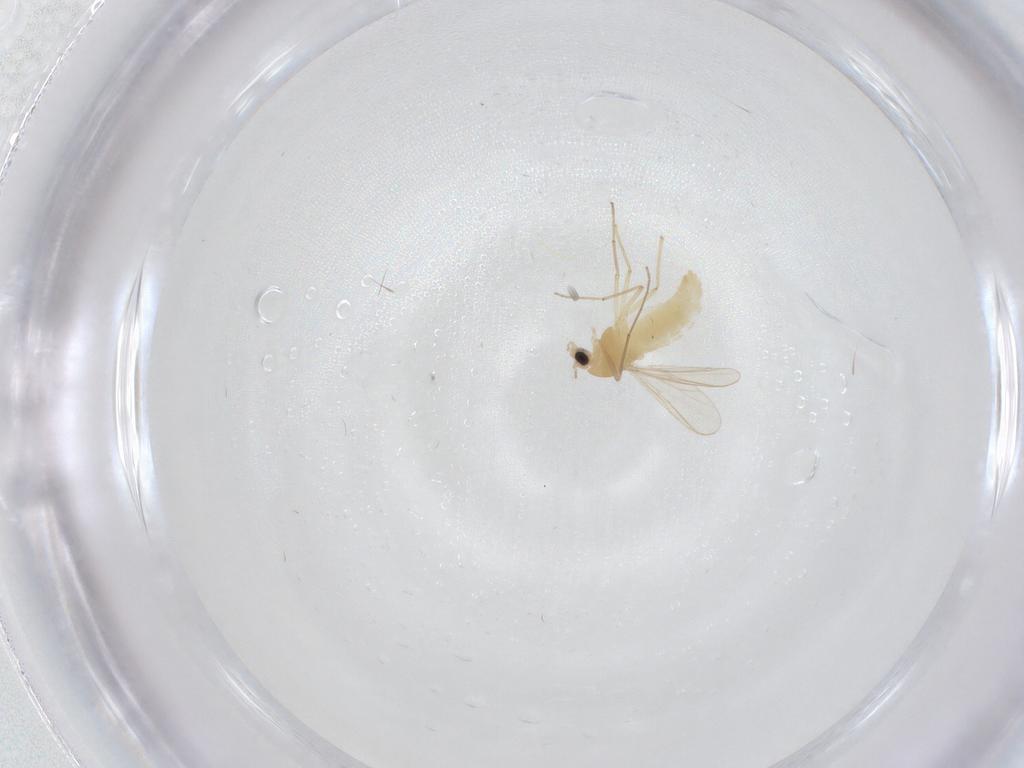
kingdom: Animalia
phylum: Arthropoda
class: Insecta
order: Diptera
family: Chironomidae
